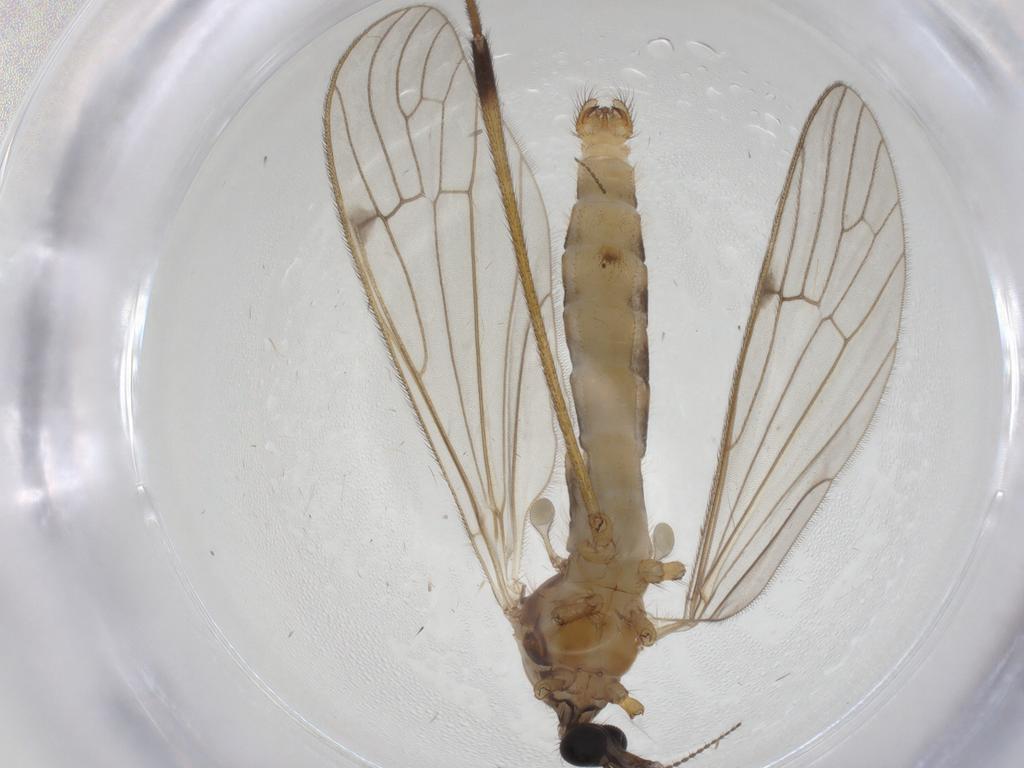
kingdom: Animalia
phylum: Arthropoda
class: Insecta
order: Diptera
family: Limoniidae
